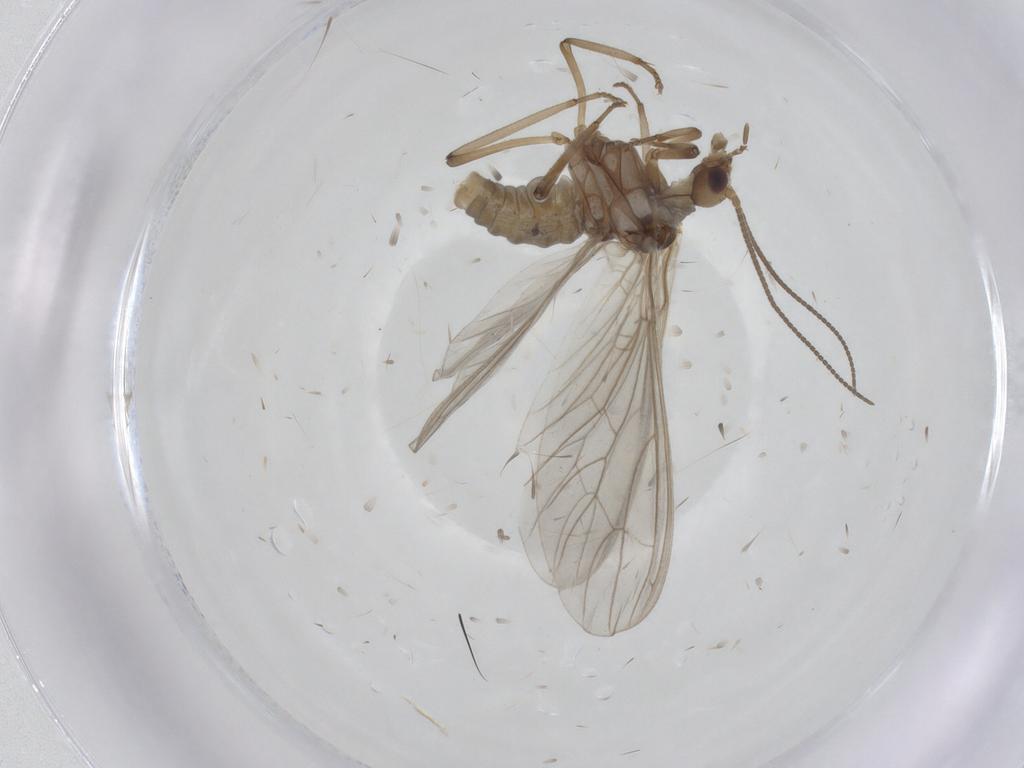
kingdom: Animalia
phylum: Arthropoda
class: Insecta
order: Neuroptera
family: Coniopterygidae
